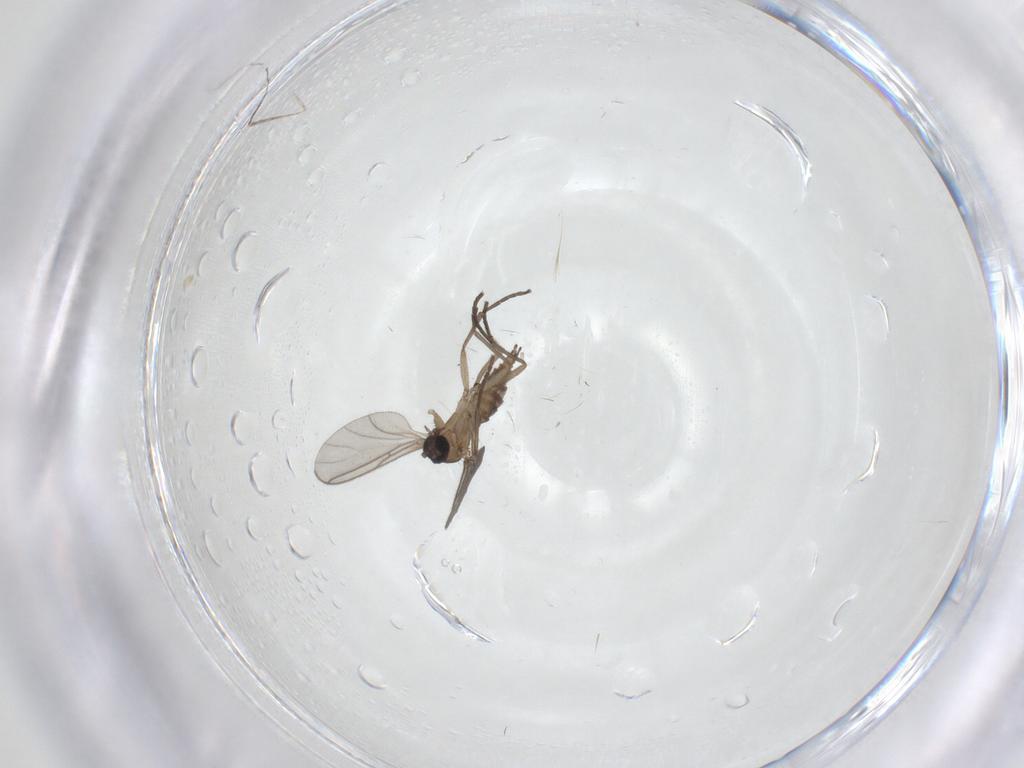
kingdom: Animalia
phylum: Arthropoda
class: Insecta
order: Diptera
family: Sciaridae
